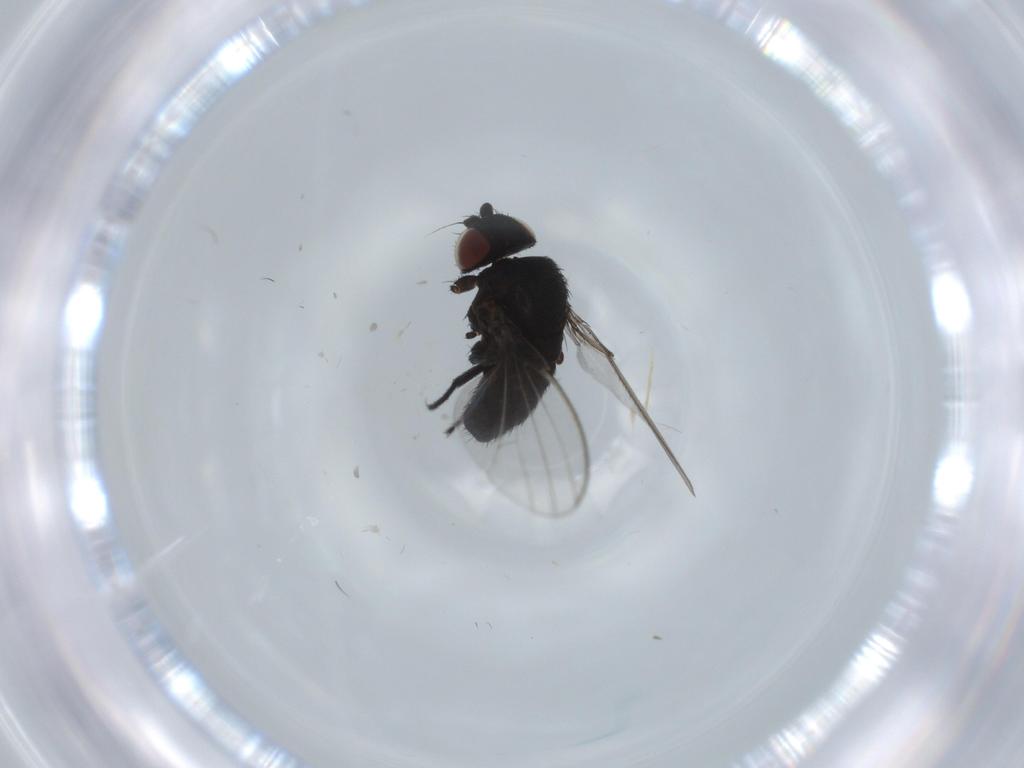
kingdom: Animalia
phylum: Arthropoda
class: Insecta
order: Diptera
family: Milichiidae
